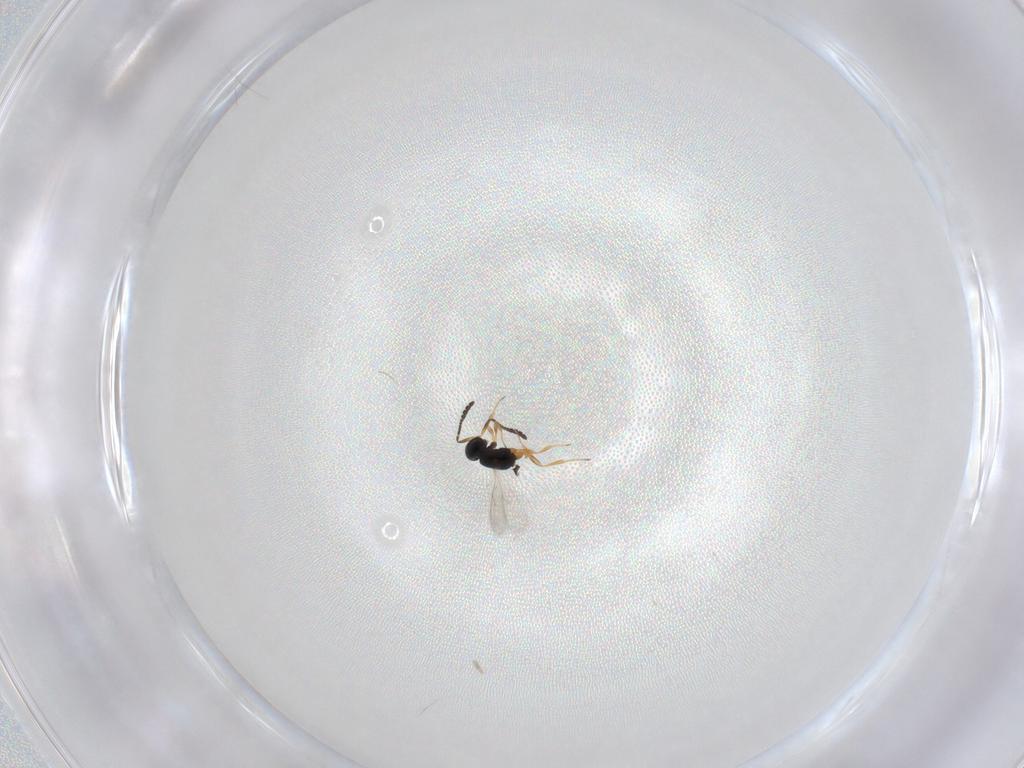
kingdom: Animalia
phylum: Arthropoda
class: Insecta
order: Hymenoptera
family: Scelionidae
